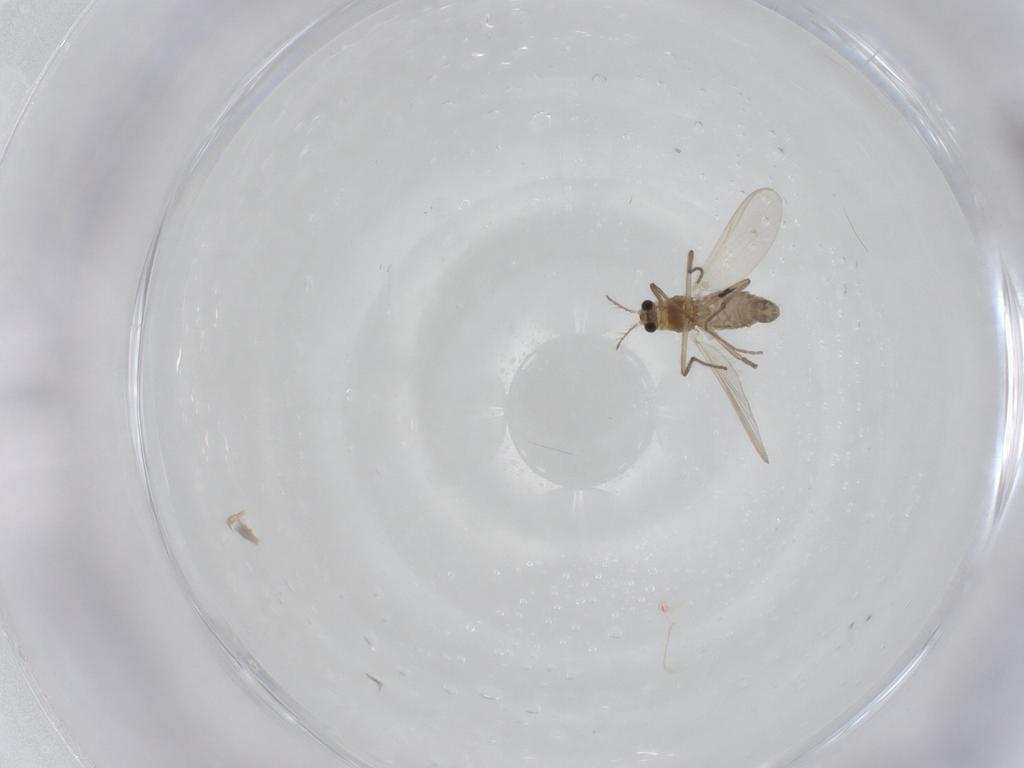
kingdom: Animalia
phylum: Arthropoda
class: Insecta
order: Diptera
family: Chironomidae
